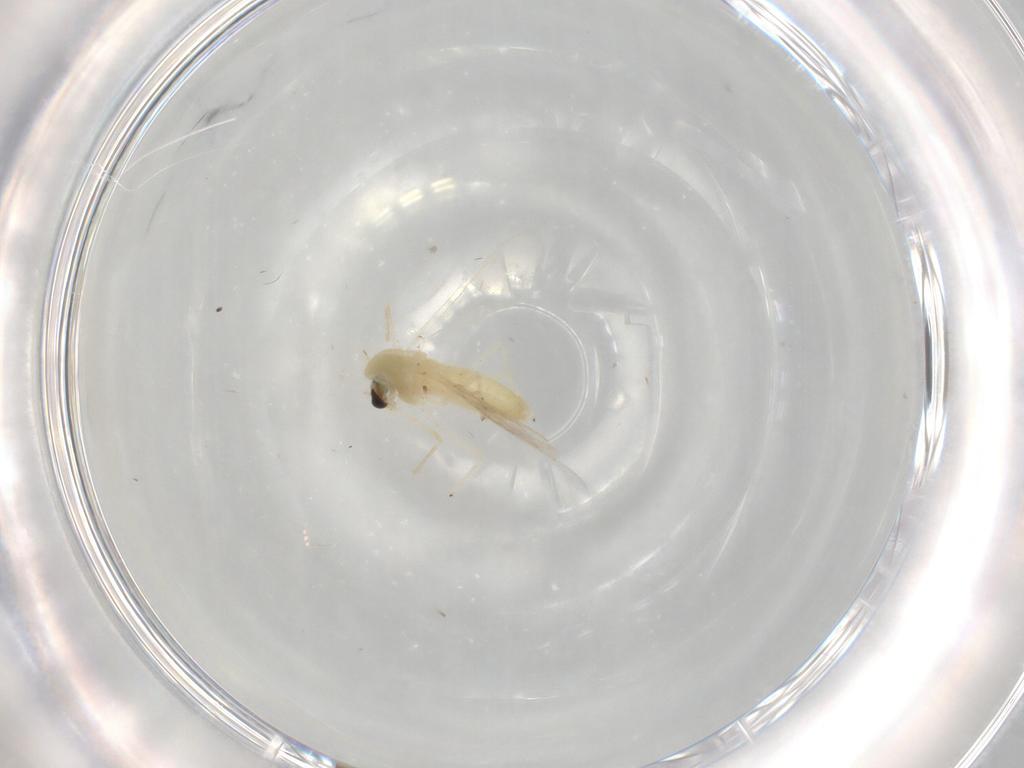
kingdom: Animalia
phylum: Arthropoda
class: Insecta
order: Diptera
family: Chironomidae
